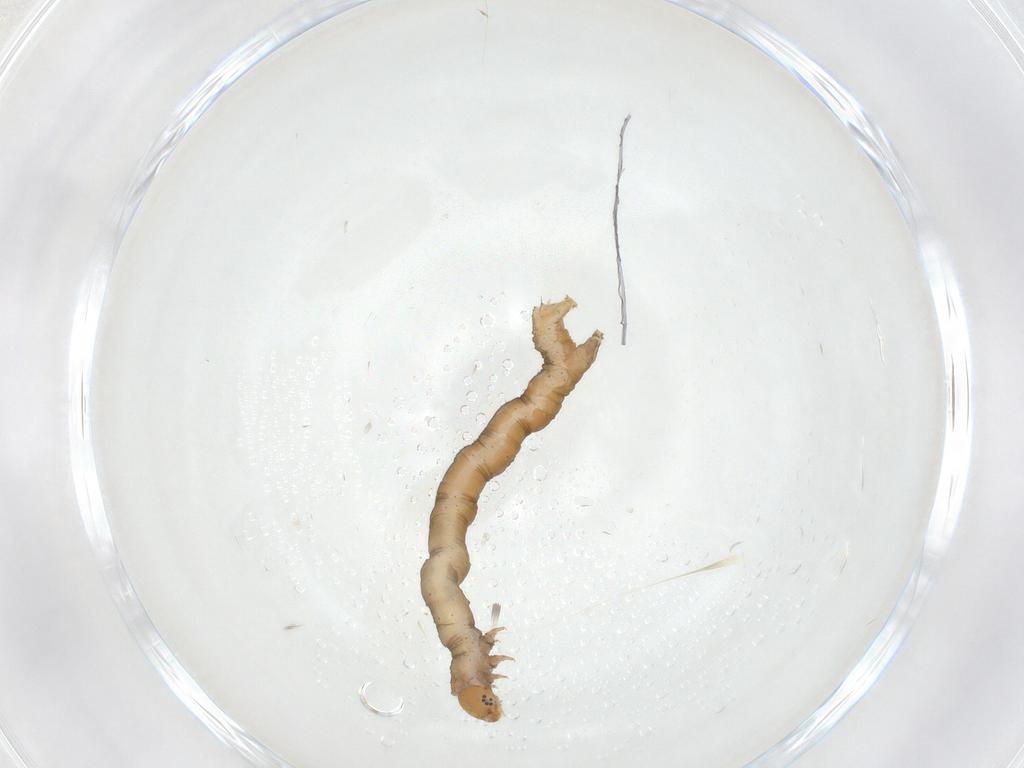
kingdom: Animalia
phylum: Arthropoda
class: Insecta
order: Lepidoptera
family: Geometridae
